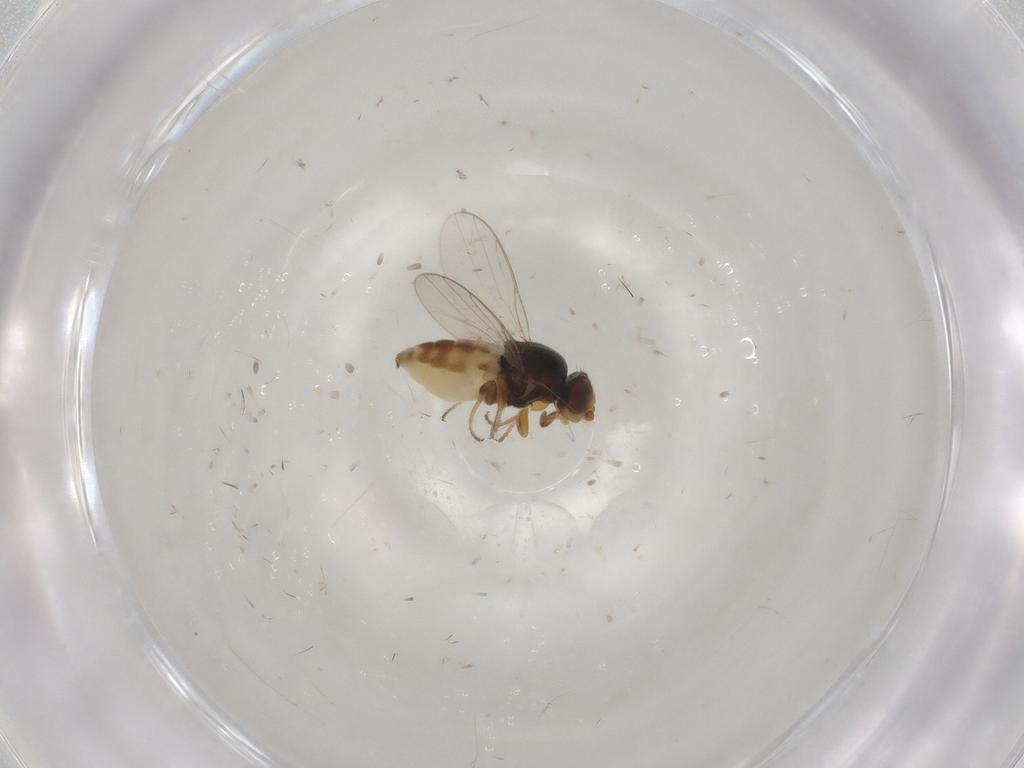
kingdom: Animalia
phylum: Arthropoda
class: Insecta
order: Diptera
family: Chloropidae
